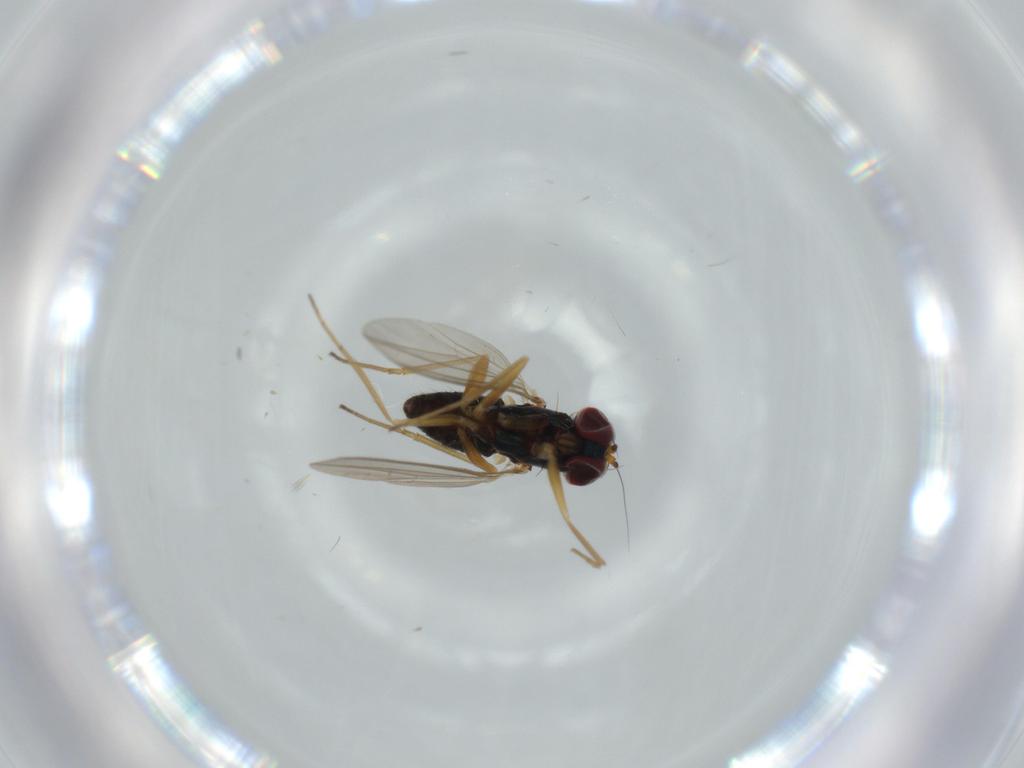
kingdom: Animalia
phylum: Arthropoda
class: Insecta
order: Diptera
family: Dolichopodidae
